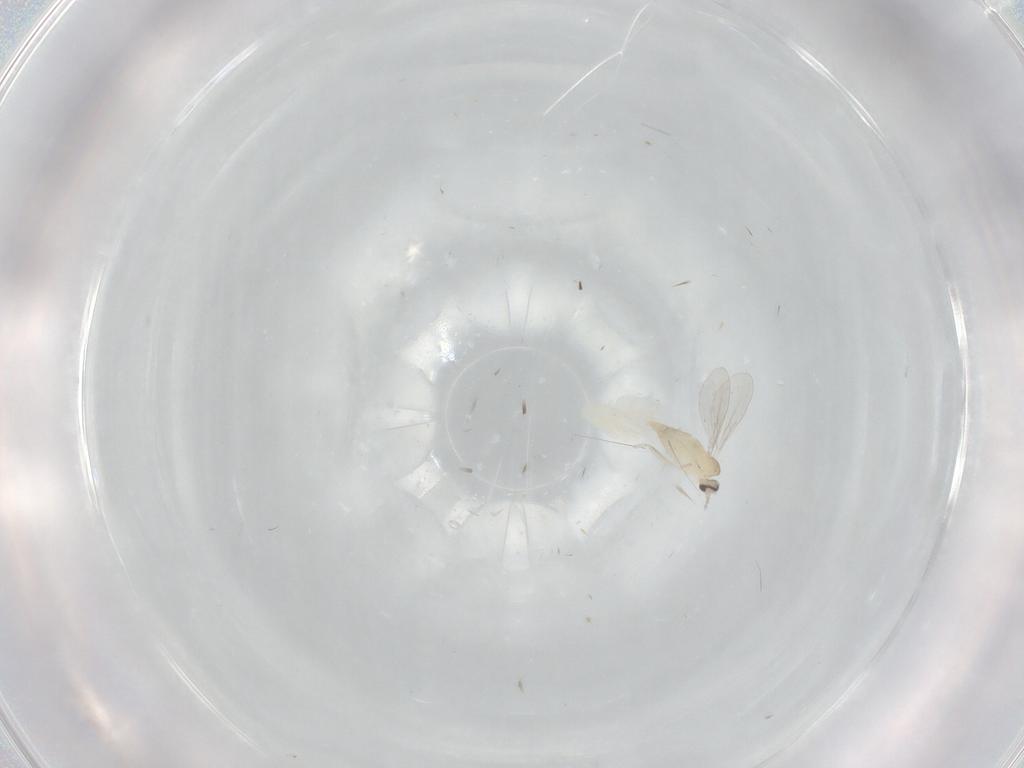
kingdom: Animalia
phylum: Arthropoda
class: Insecta
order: Diptera
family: Cecidomyiidae
